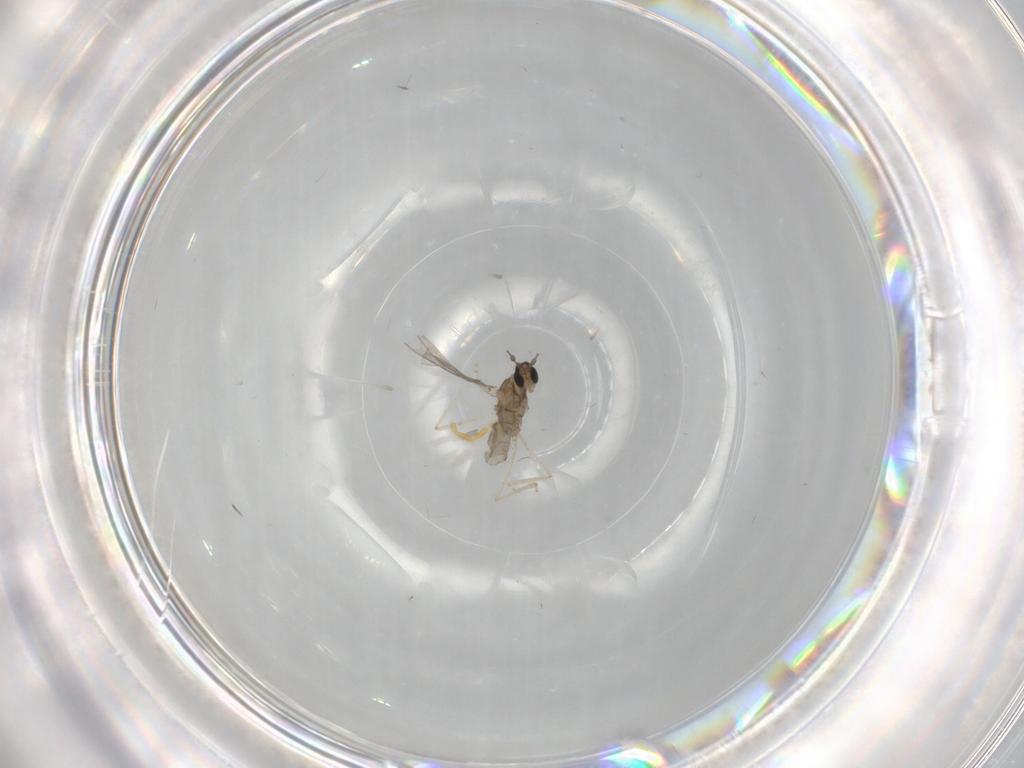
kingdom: Animalia
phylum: Arthropoda
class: Insecta
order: Diptera
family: Chironomidae
